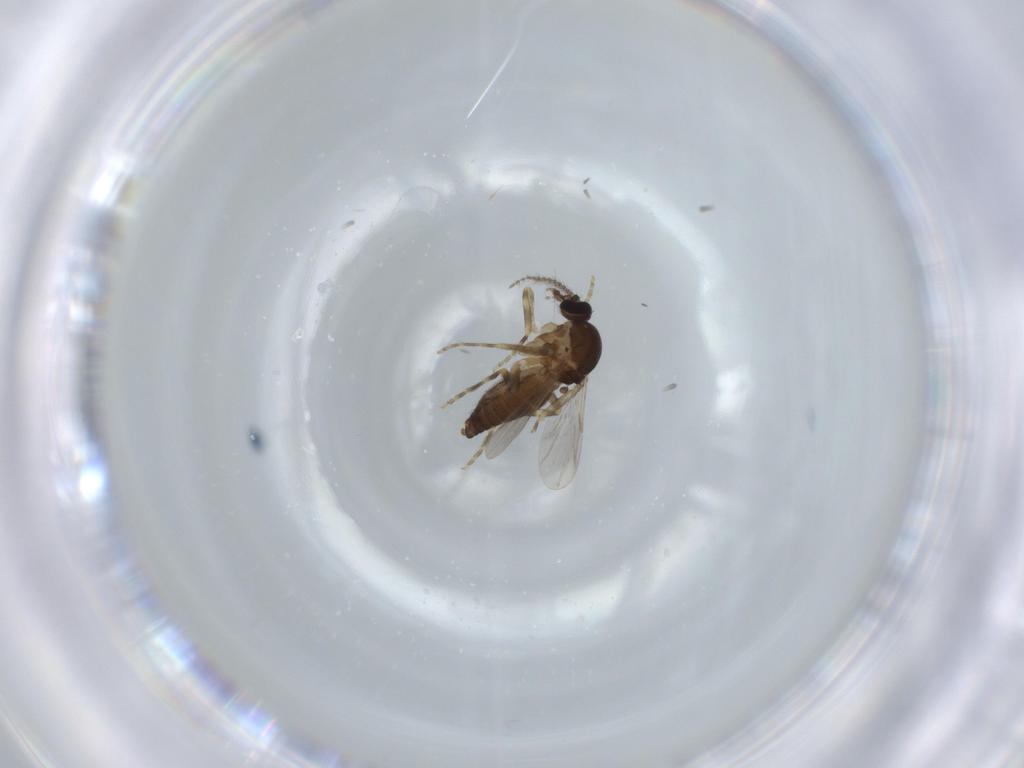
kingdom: Animalia
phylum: Arthropoda
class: Insecta
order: Diptera
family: Ceratopogonidae
